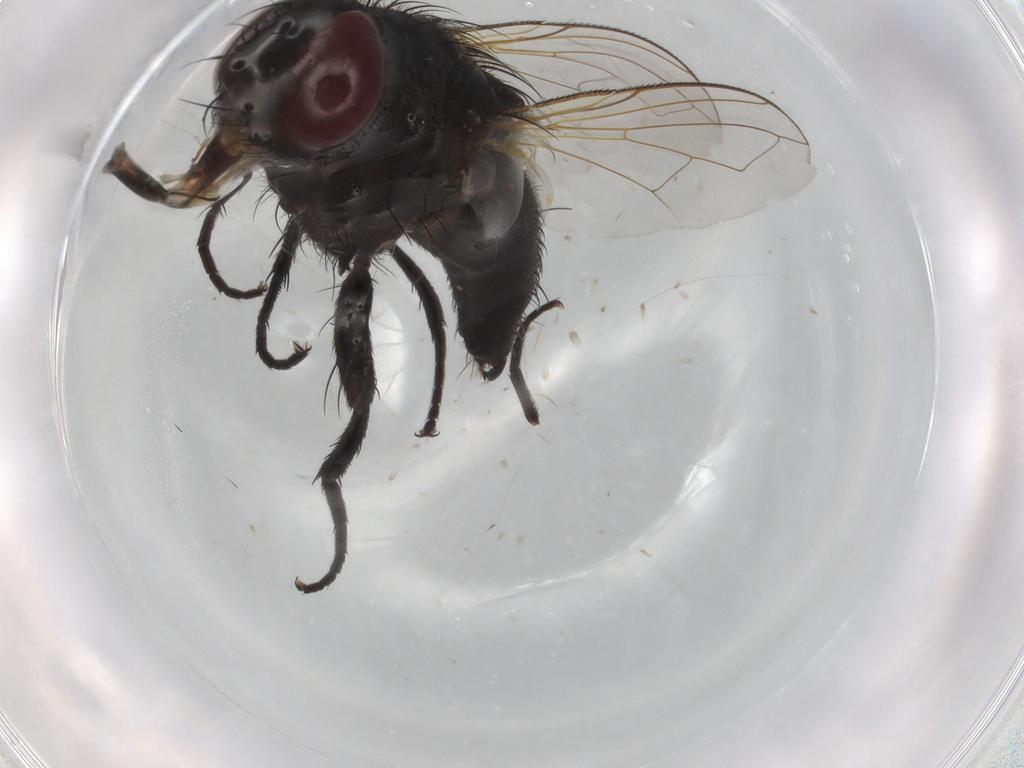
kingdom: Animalia
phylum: Arthropoda
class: Insecta
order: Diptera
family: Tachinidae
